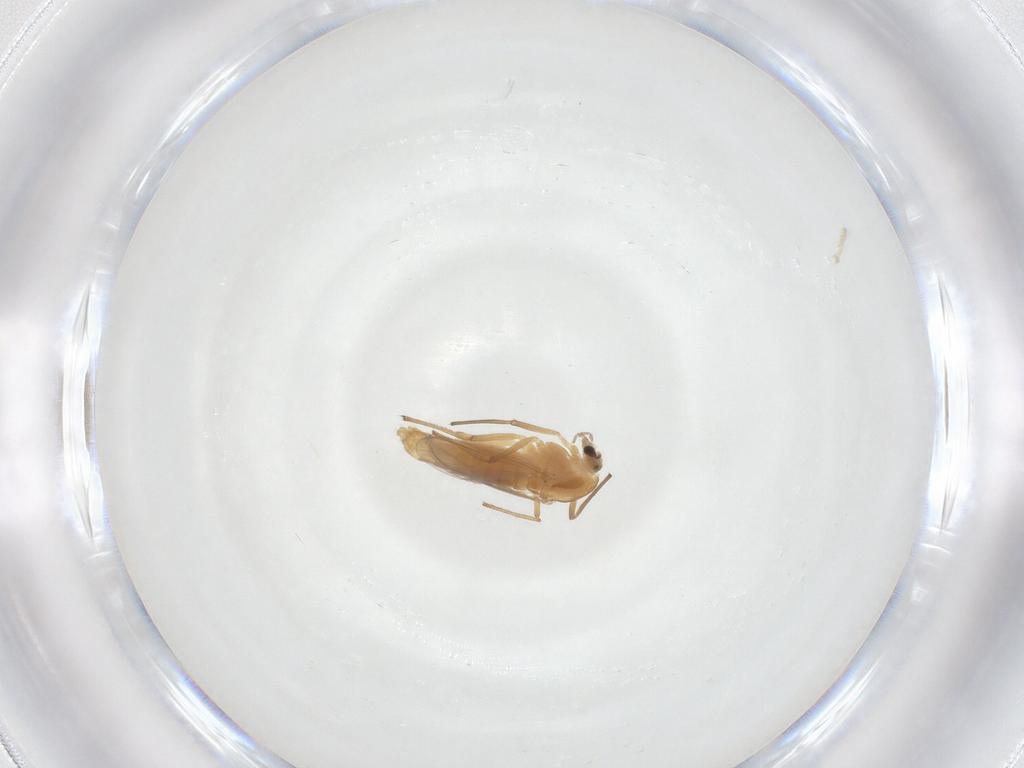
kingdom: Animalia
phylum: Arthropoda
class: Insecta
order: Diptera
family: Chironomidae
